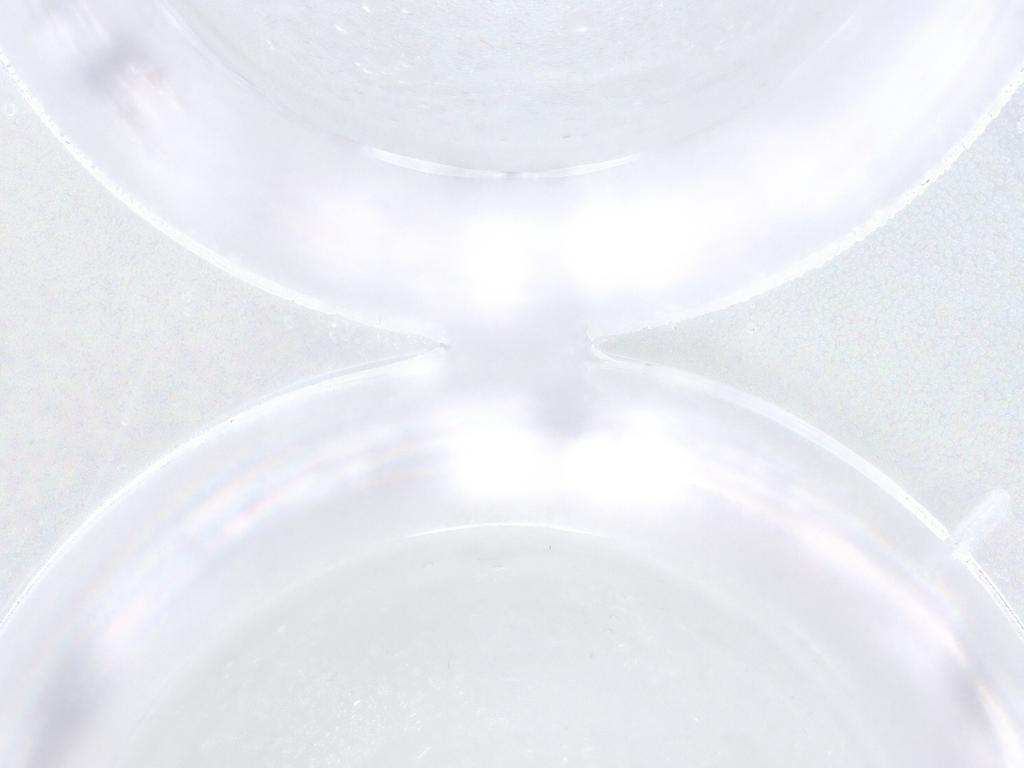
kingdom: Animalia
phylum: Arthropoda
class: Insecta
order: Diptera
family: Ceratopogonidae
